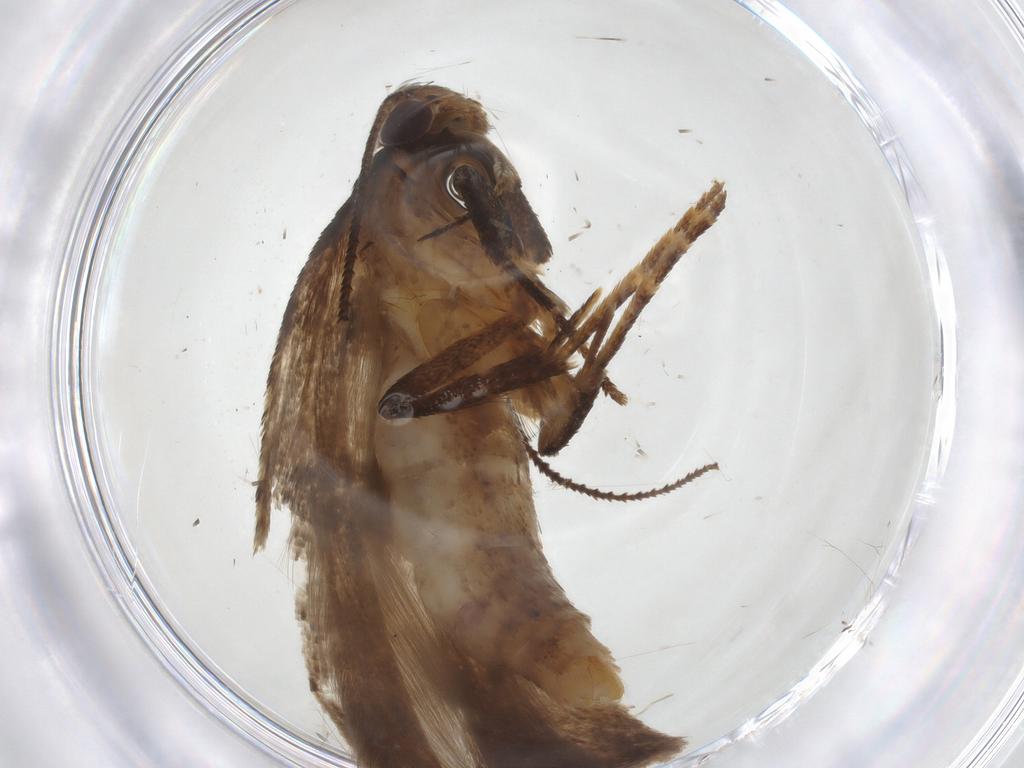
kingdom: Animalia
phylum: Arthropoda
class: Insecta
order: Lepidoptera
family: Gelechiidae
